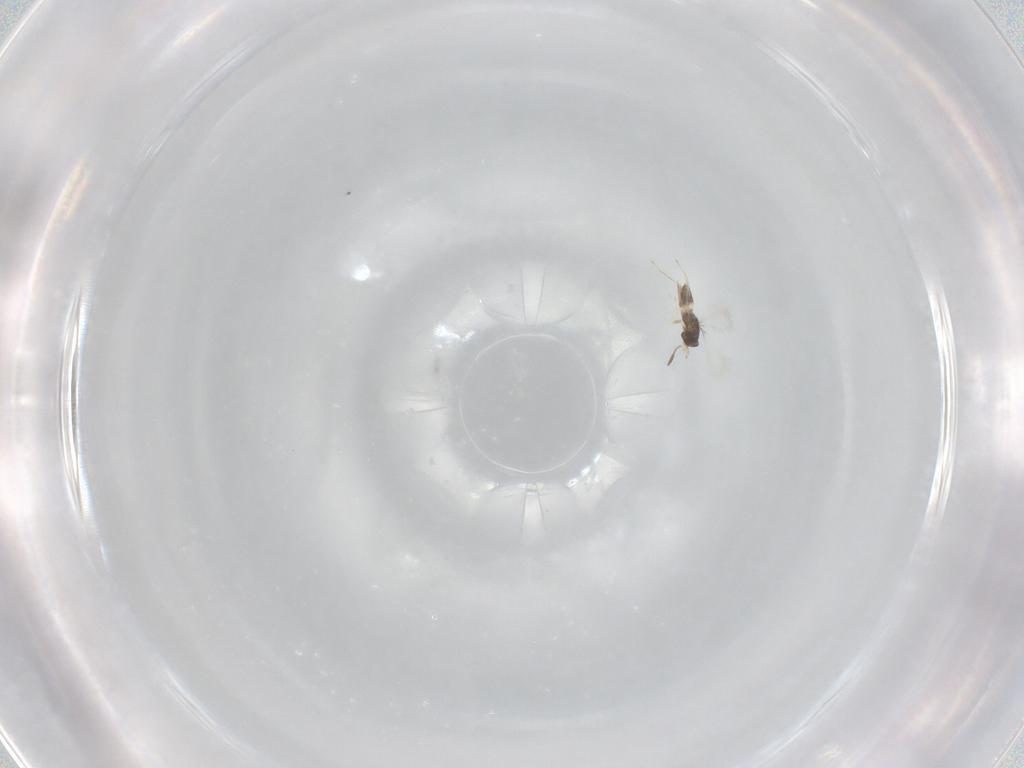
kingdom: Animalia
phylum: Arthropoda
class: Insecta
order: Hymenoptera
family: Mymaridae
